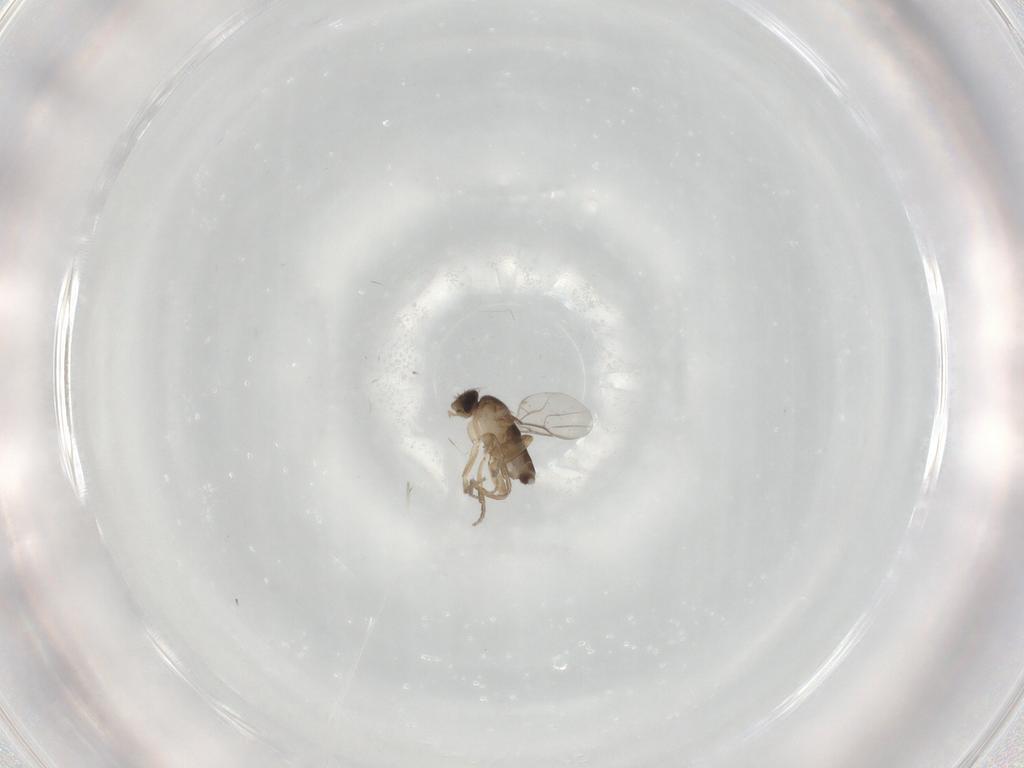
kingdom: Animalia
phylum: Arthropoda
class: Insecta
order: Diptera
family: Phoridae
